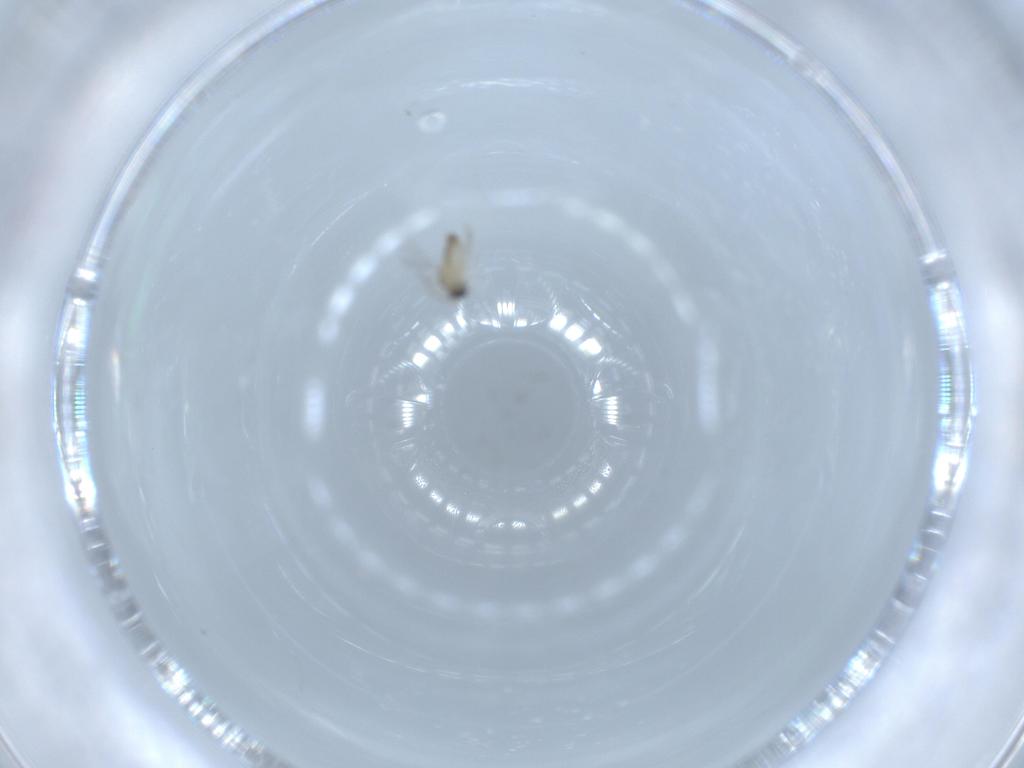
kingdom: Animalia
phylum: Arthropoda
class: Insecta
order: Diptera
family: Cecidomyiidae
